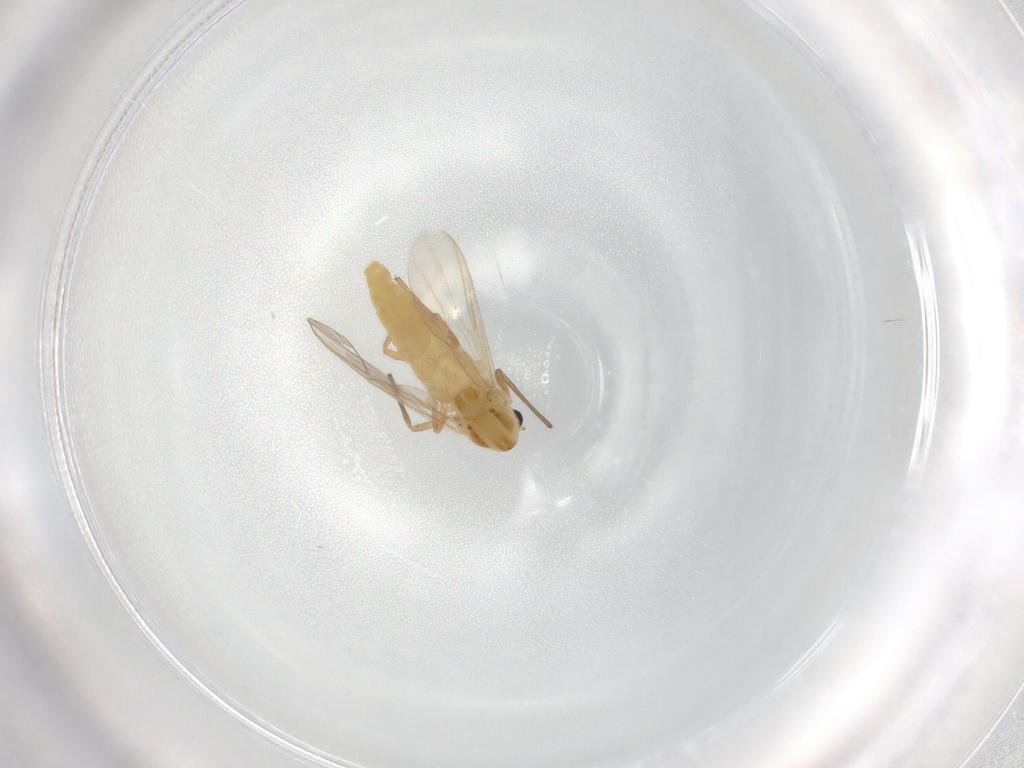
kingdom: Animalia
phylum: Arthropoda
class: Insecta
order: Diptera
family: Chironomidae
